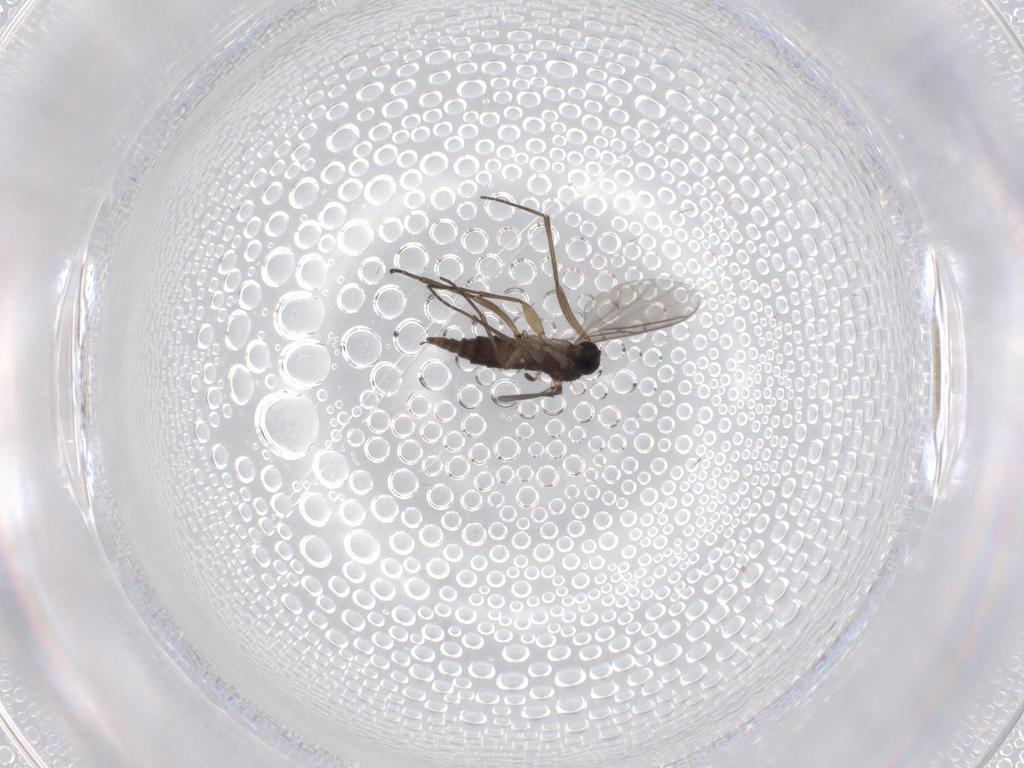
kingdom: Animalia
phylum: Arthropoda
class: Insecta
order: Diptera
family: Sciaridae
